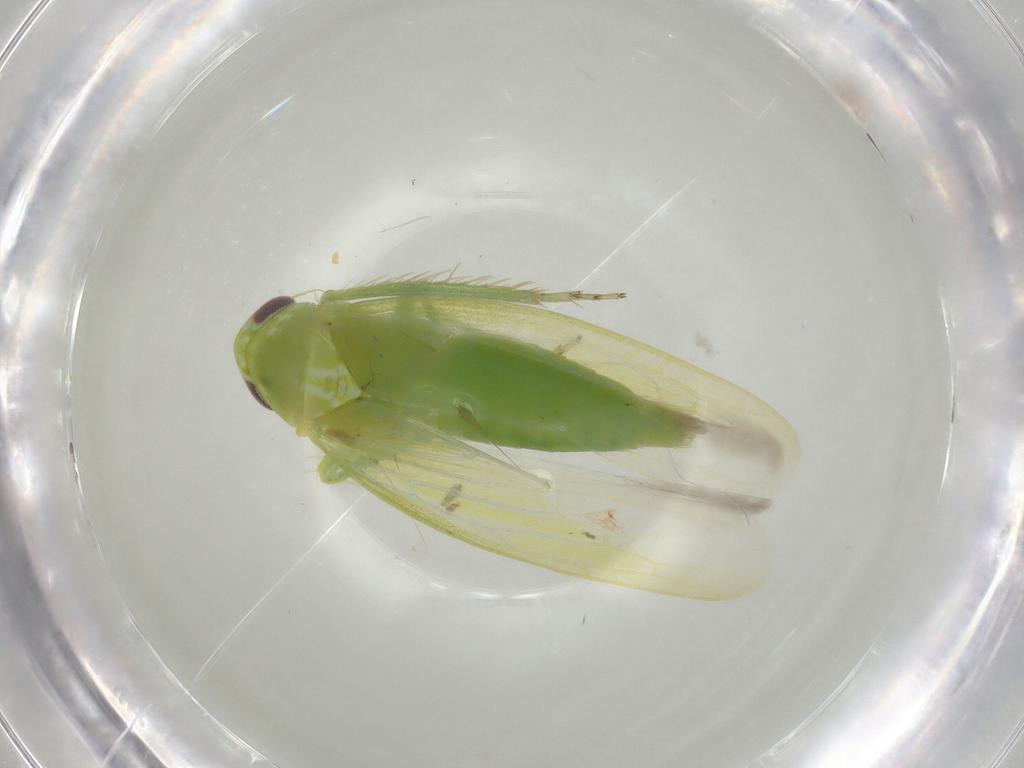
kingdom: Animalia
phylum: Arthropoda
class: Insecta
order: Hemiptera
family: Cicadellidae
